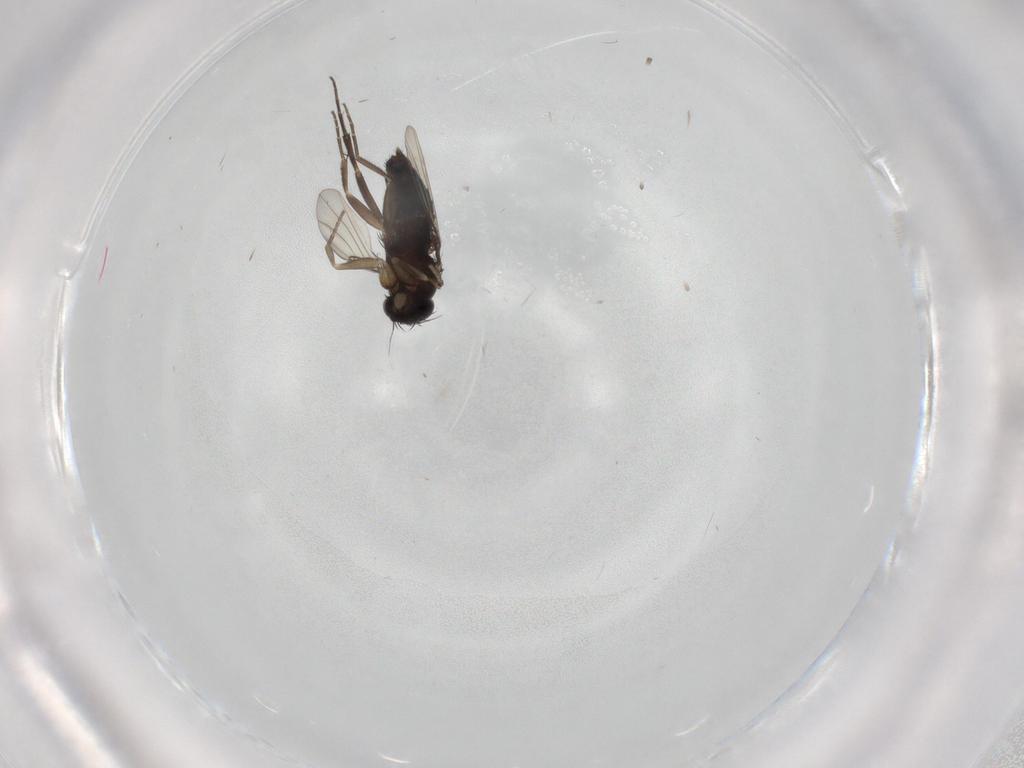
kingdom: Animalia
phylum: Arthropoda
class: Insecta
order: Diptera
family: Phoridae
